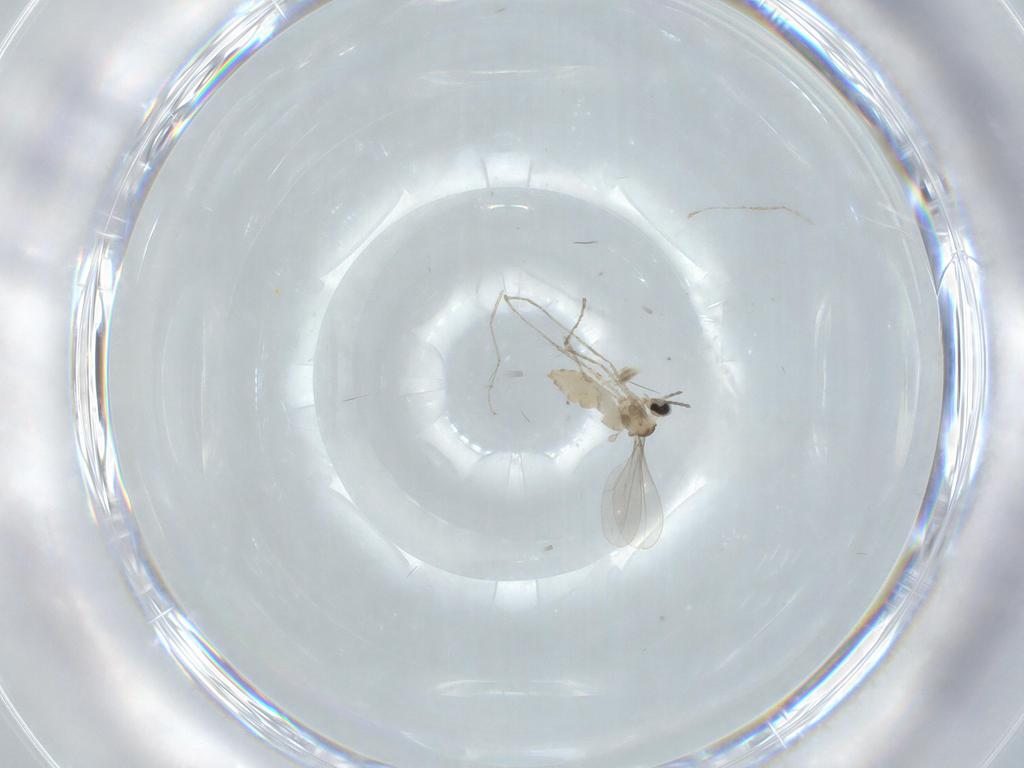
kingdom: Animalia
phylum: Arthropoda
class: Insecta
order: Diptera
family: Cecidomyiidae
